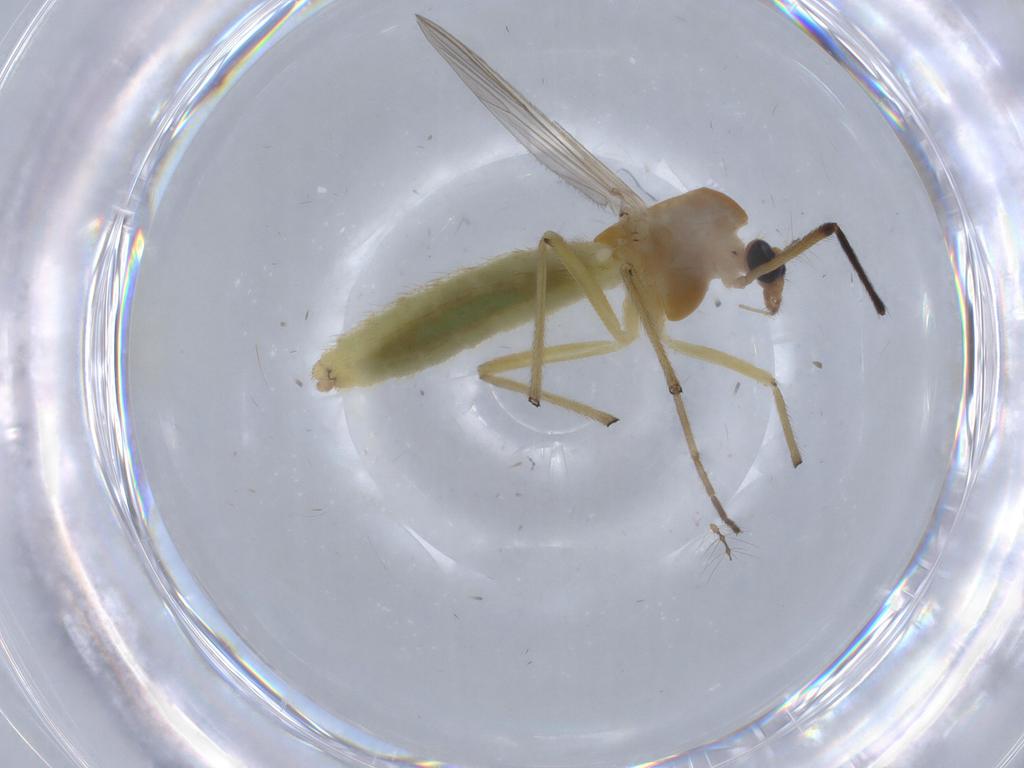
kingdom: Animalia
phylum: Arthropoda
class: Insecta
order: Diptera
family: Chironomidae
